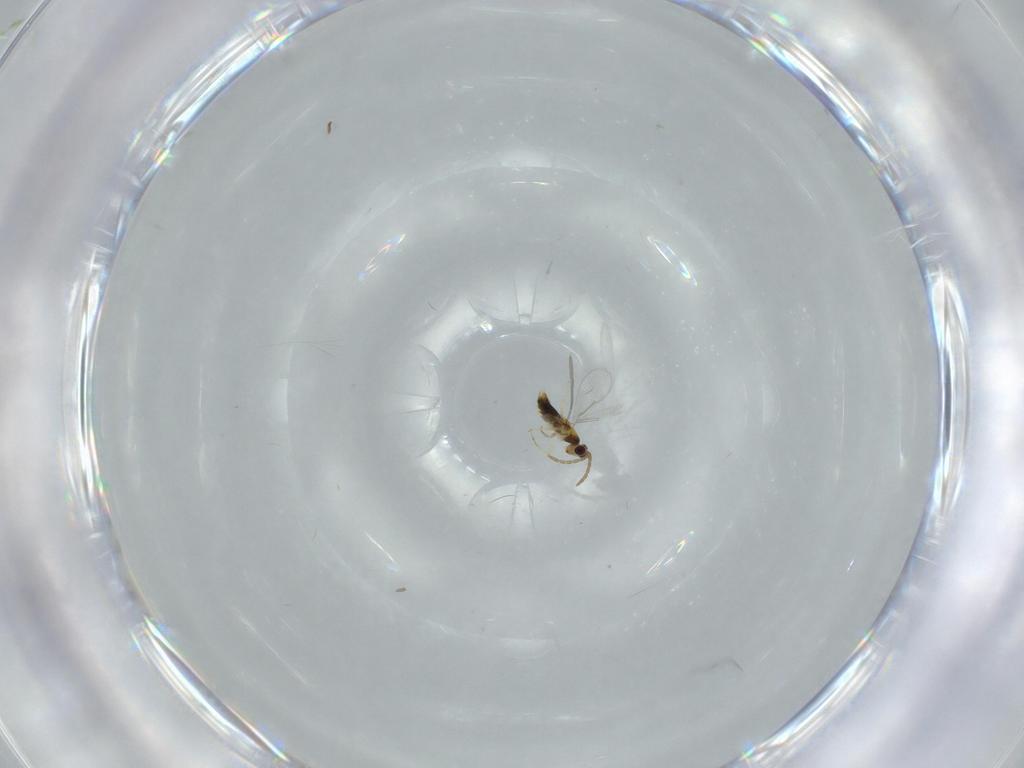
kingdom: Animalia
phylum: Arthropoda
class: Insecta
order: Hymenoptera
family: Aphelinidae
